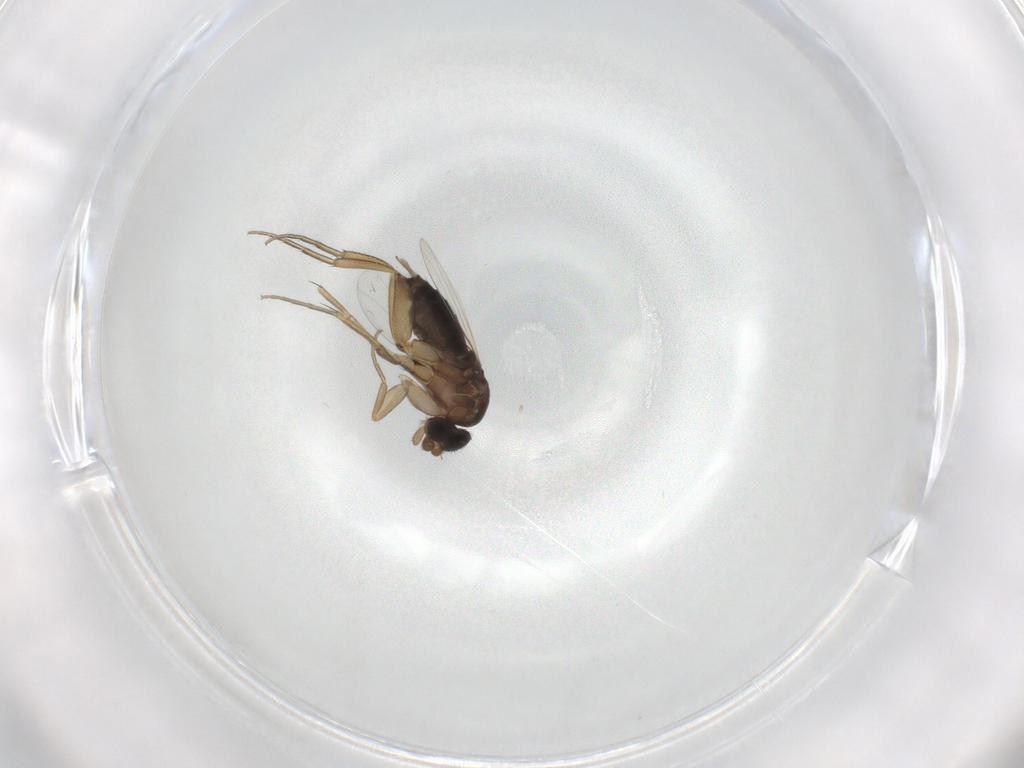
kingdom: Animalia
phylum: Arthropoda
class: Insecta
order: Diptera
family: Phoridae
